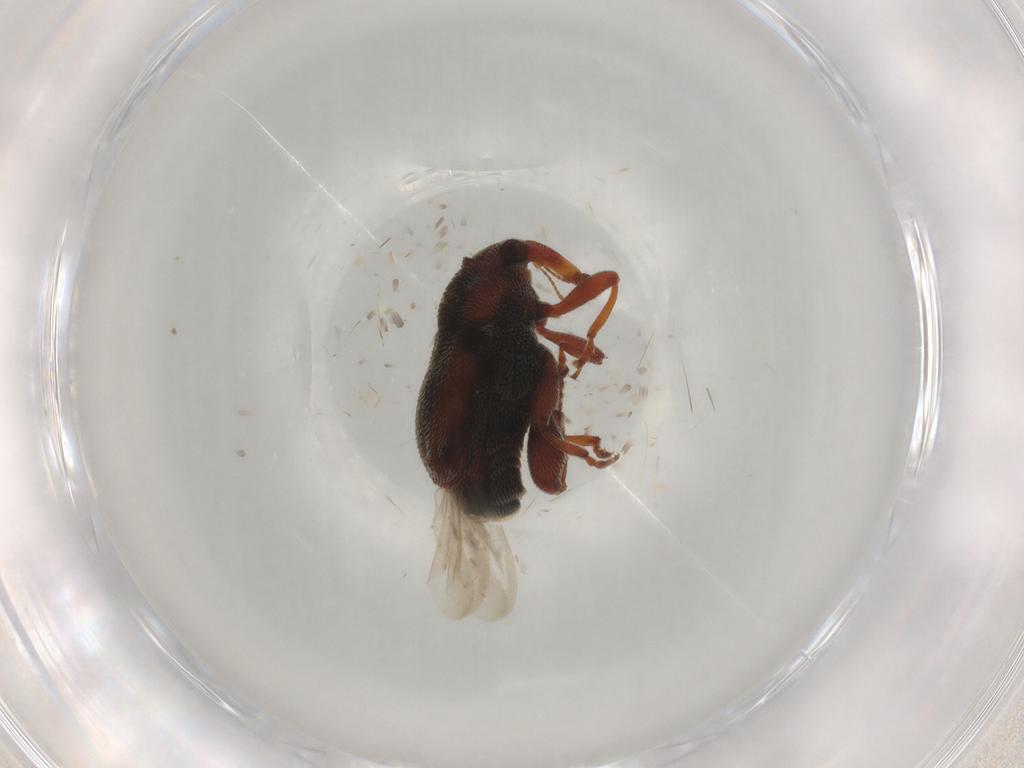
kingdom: Animalia
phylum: Arthropoda
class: Insecta
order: Coleoptera
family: Curculionidae
